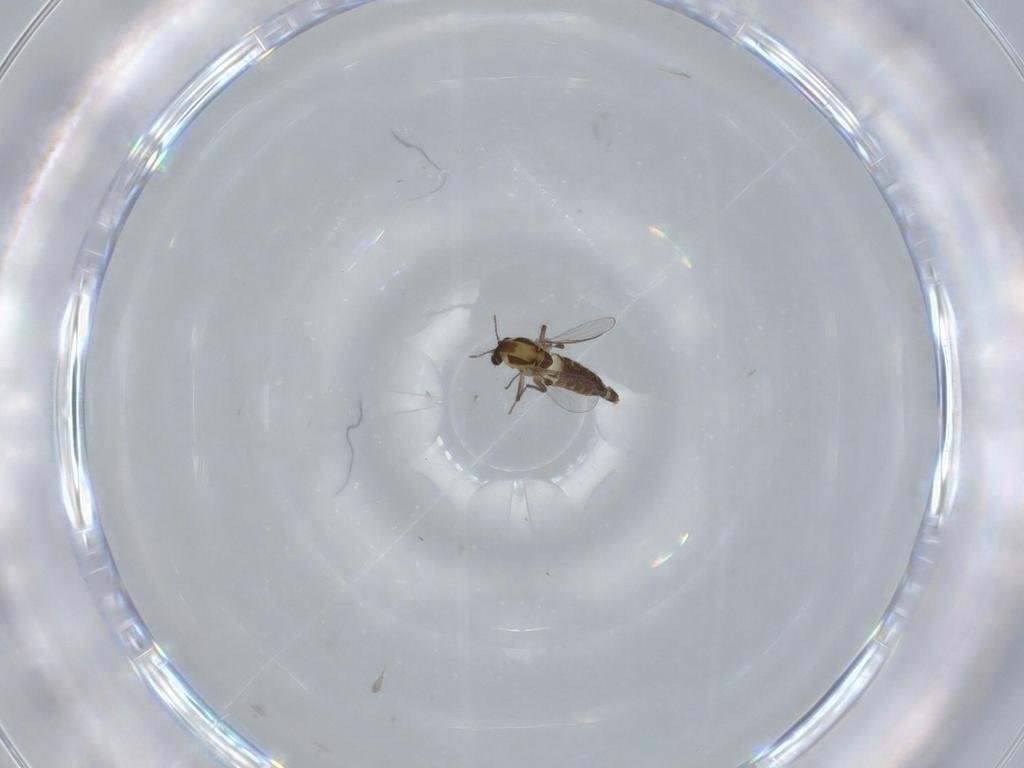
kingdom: Animalia
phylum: Arthropoda
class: Insecta
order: Diptera
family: Chironomidae
